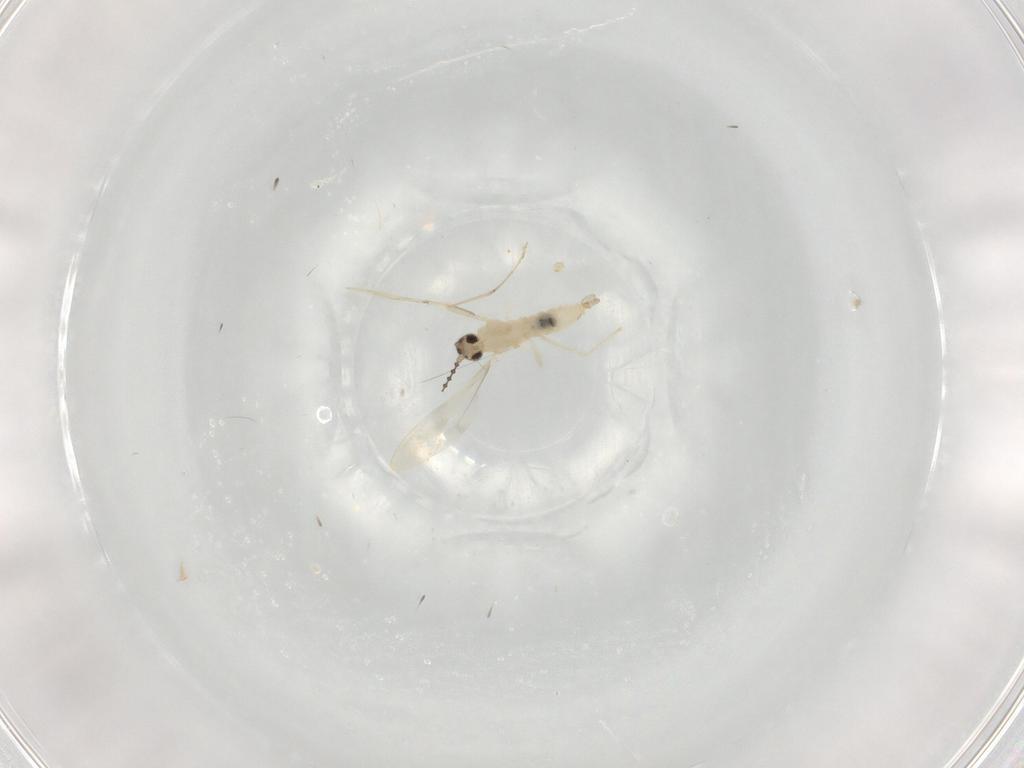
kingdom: Animalia
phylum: Arthropoda
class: Insecta
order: Diptera
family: Cecidomyiidae
